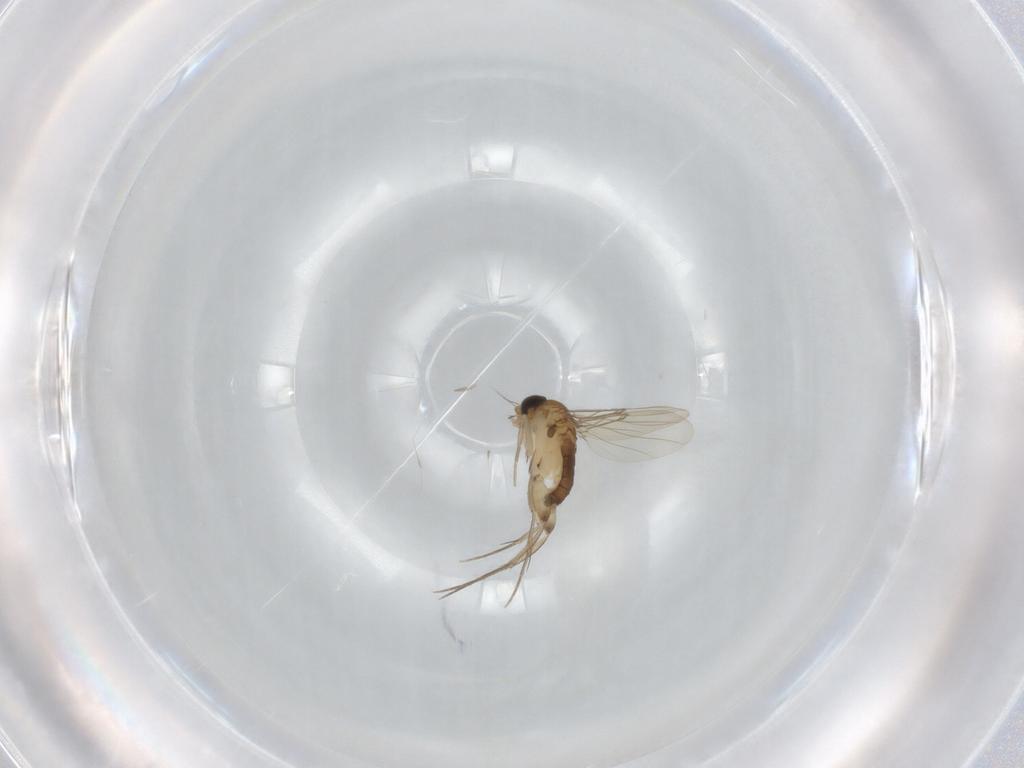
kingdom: Animalia
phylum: Arthropoda
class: Insecta
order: Diptera
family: Phoridae
